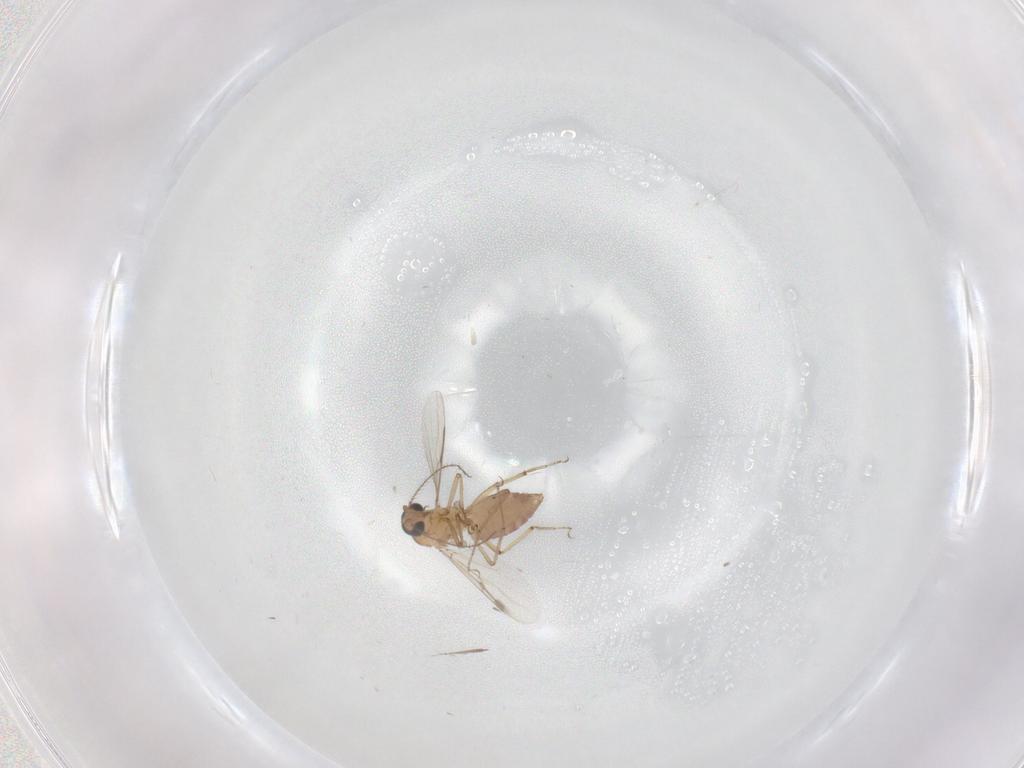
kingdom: Animalia
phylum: Arthropoda
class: Insecta
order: Diptera
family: Ceratopogonidae
